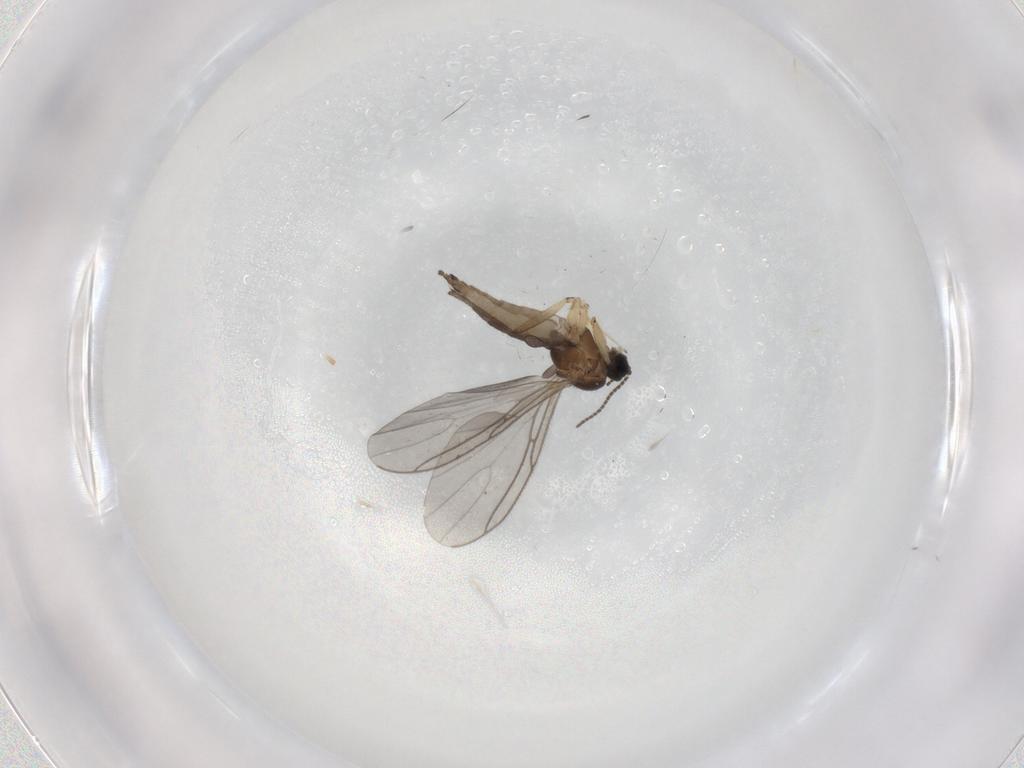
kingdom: Animalia
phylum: Arthropoda
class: Insecta
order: Diptera
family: Sciaridae
